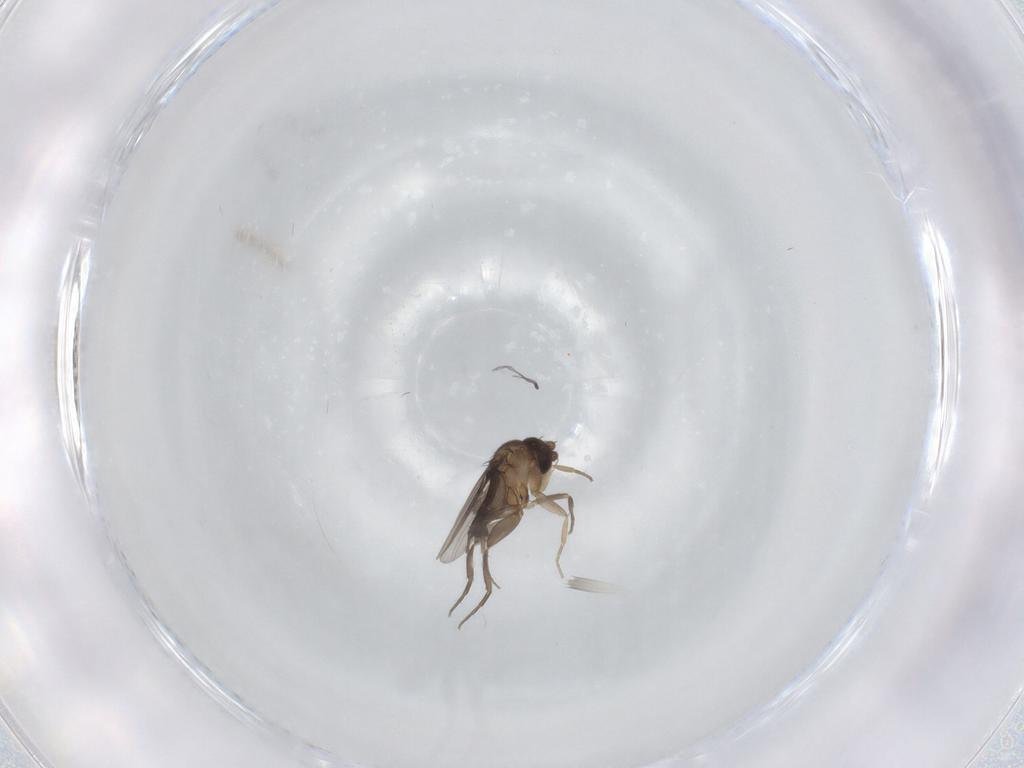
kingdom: Animalia
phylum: Arthropoda
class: Insecta
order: Diptera
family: Phoridae
